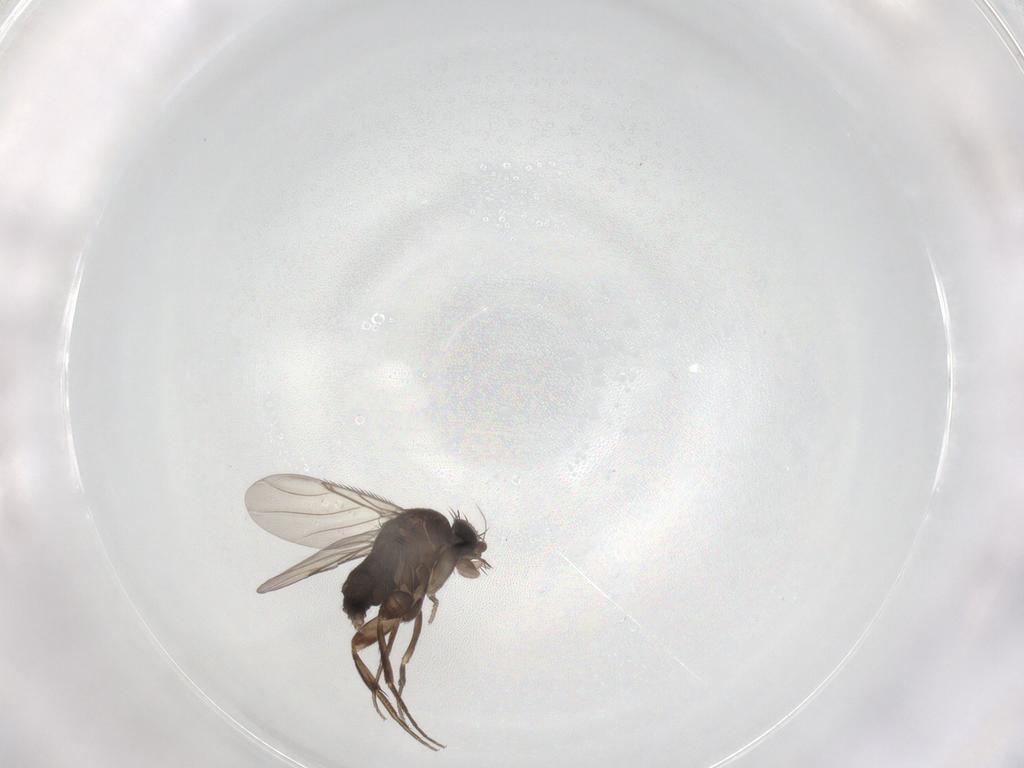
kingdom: Animalia
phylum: Arthropoda
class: Insecta
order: Diptera
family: Phoridae
